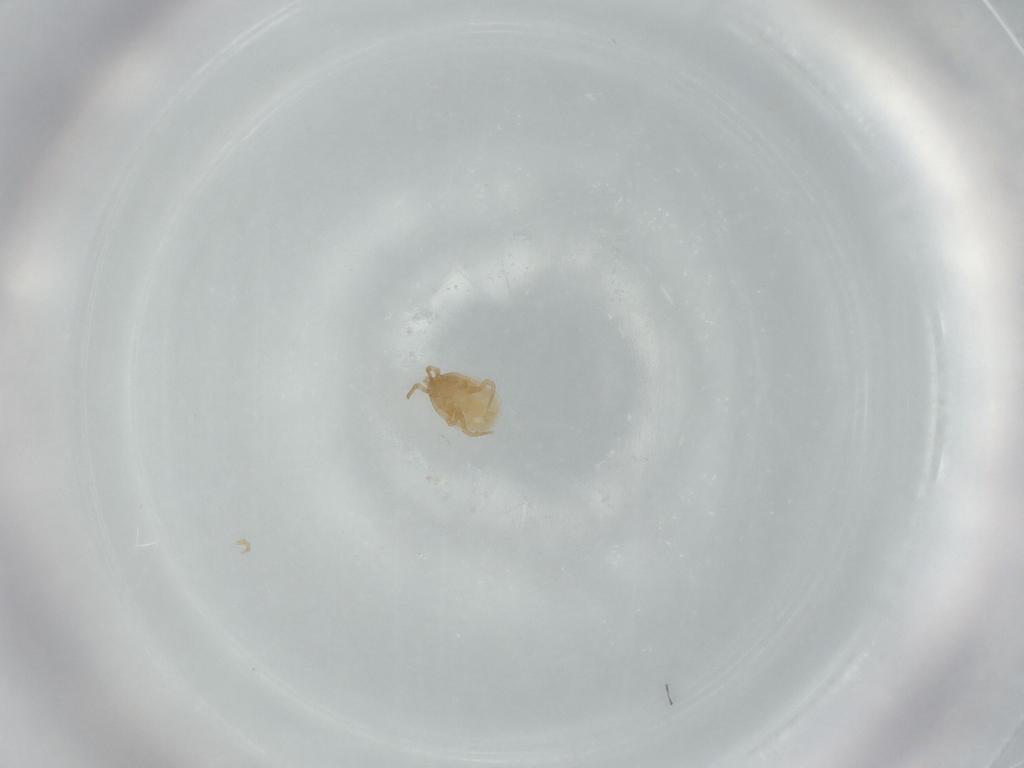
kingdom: Animalia
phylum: Arthropoda
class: Arachnida
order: Mesostigmata
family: Laelapidae
